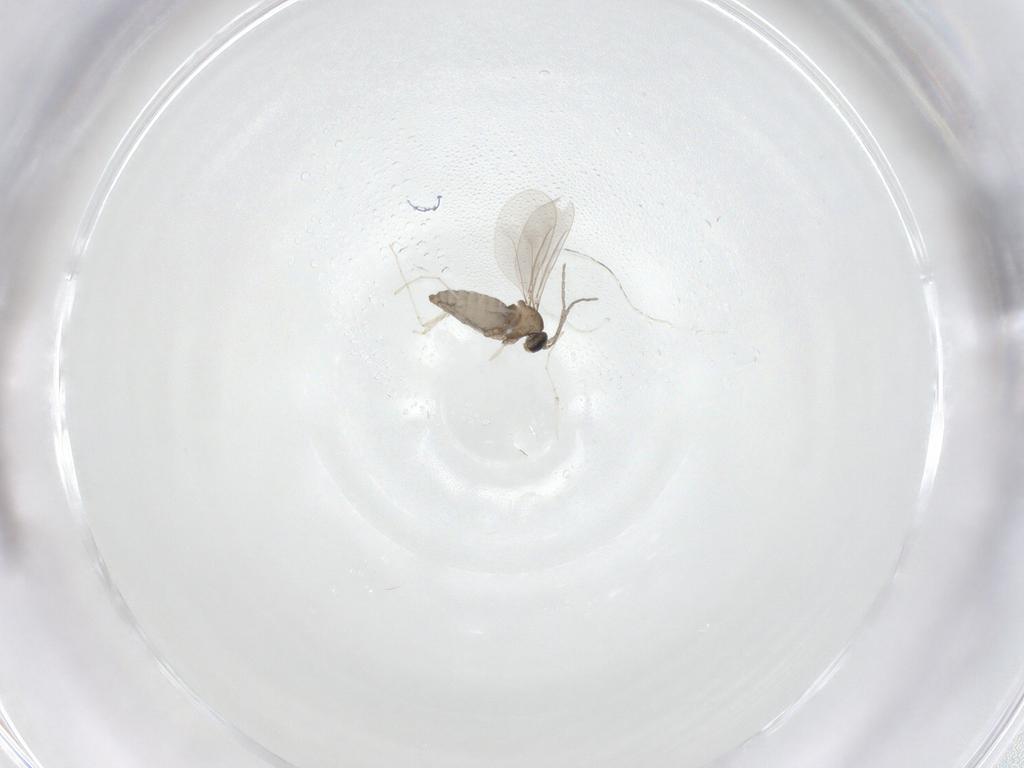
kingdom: Animalia
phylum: Arthropoda
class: Insecta
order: Diptera
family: Cecidomyiidae
